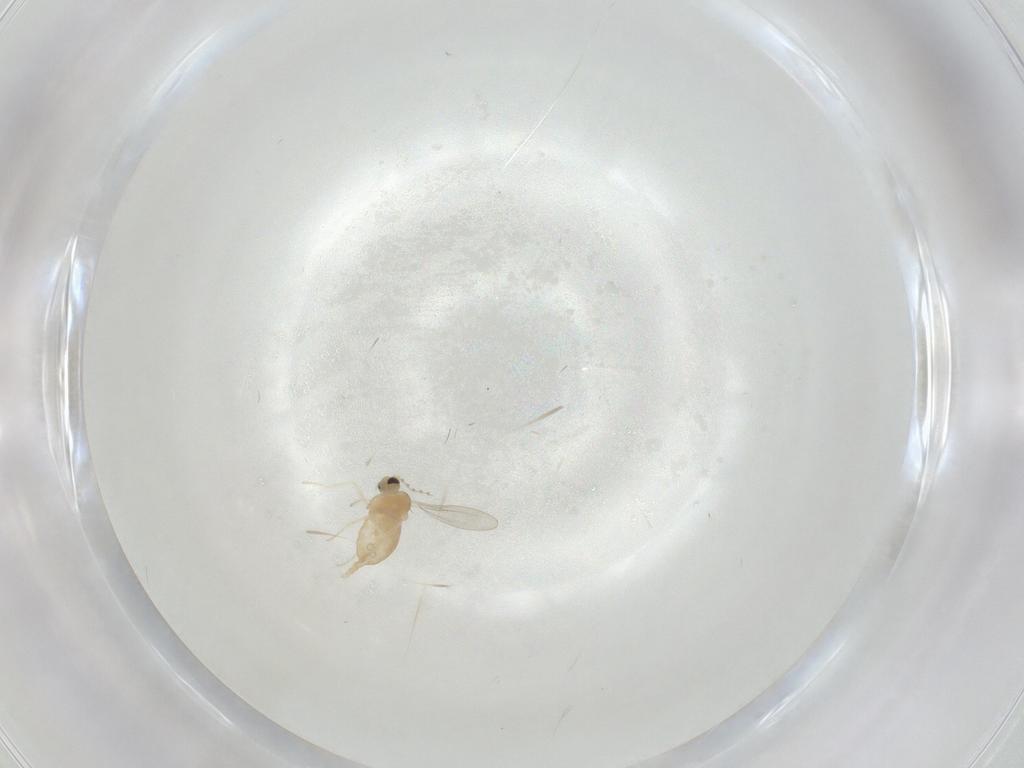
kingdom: Animalia
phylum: Arthropoda
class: Insecta
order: Diptera
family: Cecidomyiidae
